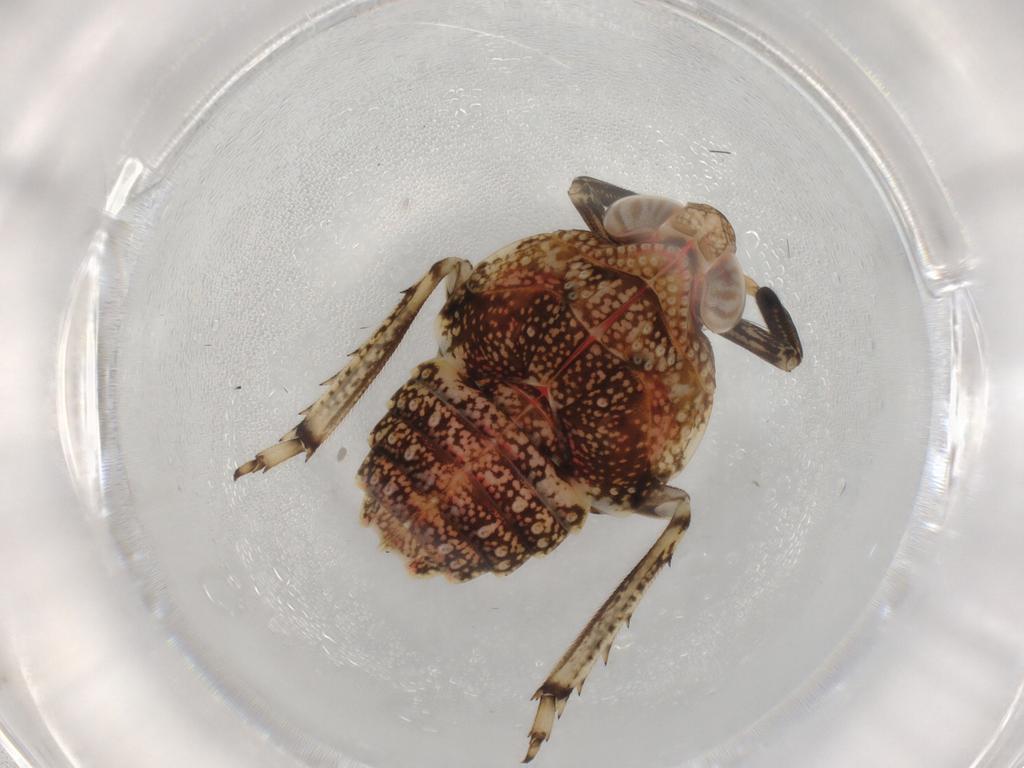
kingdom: Animalia
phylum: Arthropoda
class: Insecta
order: Hemiptera
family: Issidae
